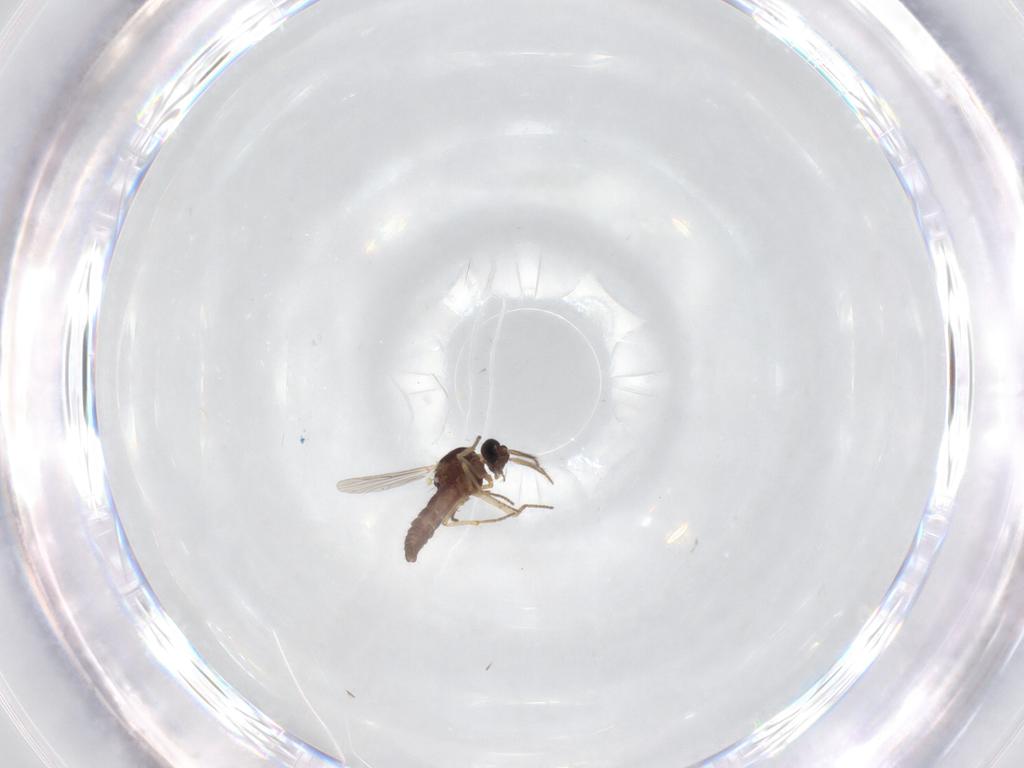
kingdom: Animalia
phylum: Arthropoda
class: Insecta
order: Diptera
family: Ceratopogonidae
